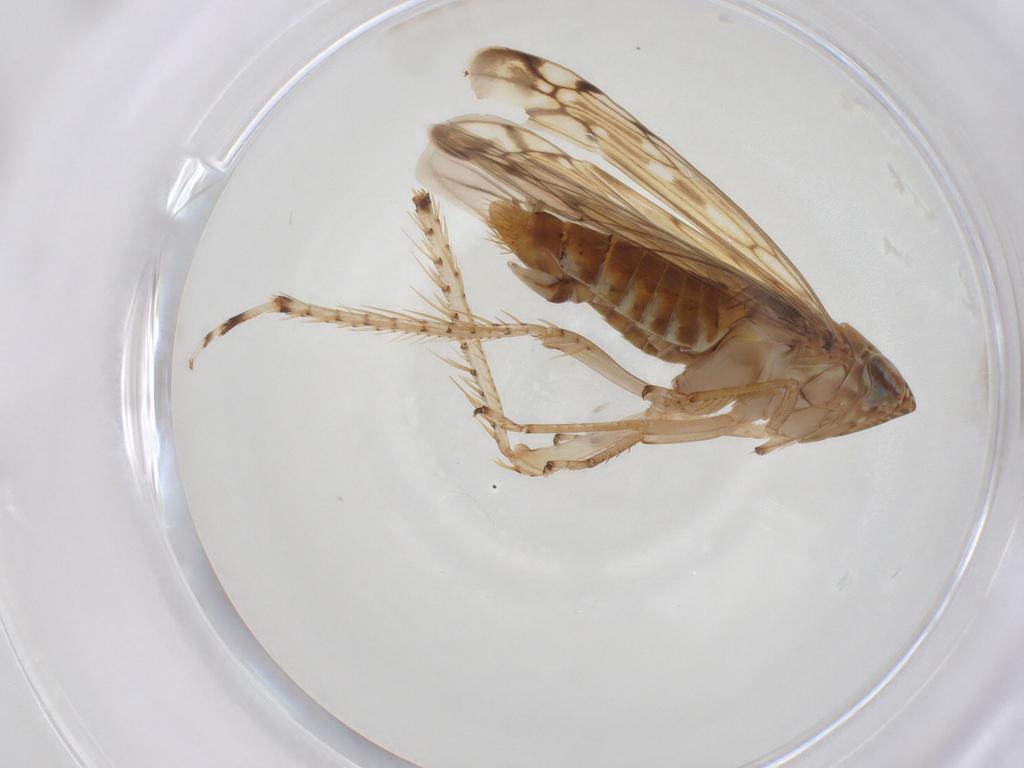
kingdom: Animalia
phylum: Arthropoda
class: Insecta
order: Hemiptera
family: Cicadellidae
